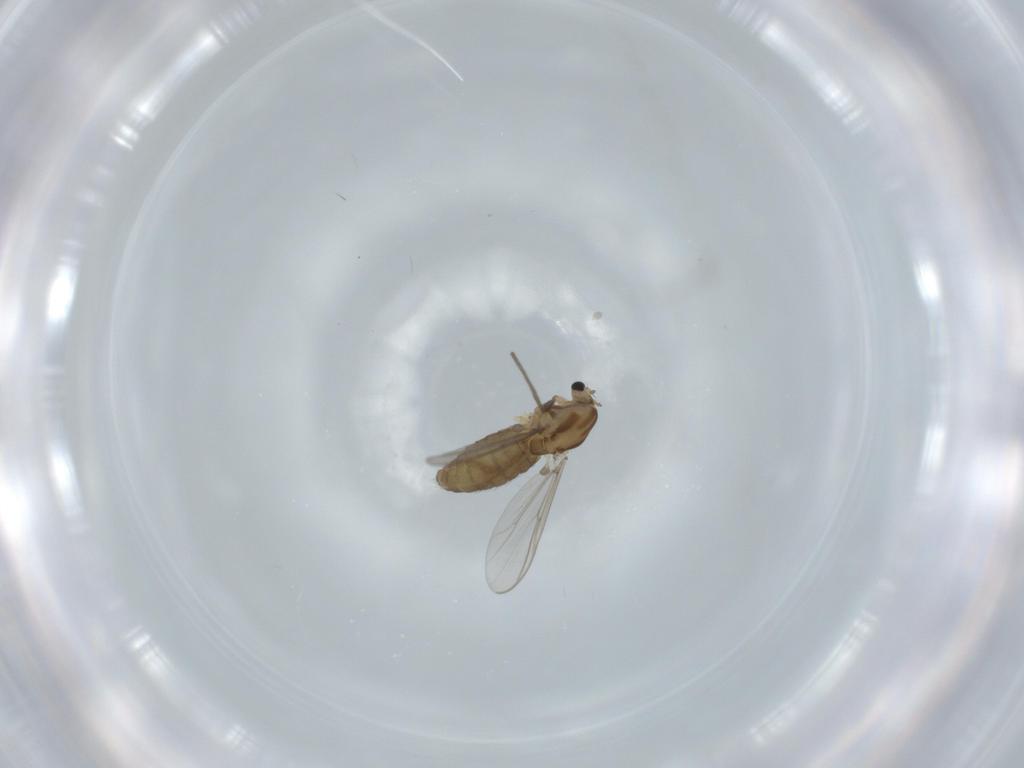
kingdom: Animalia
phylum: Arthropoda
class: Insecta
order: Diptera
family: Chironomidae
